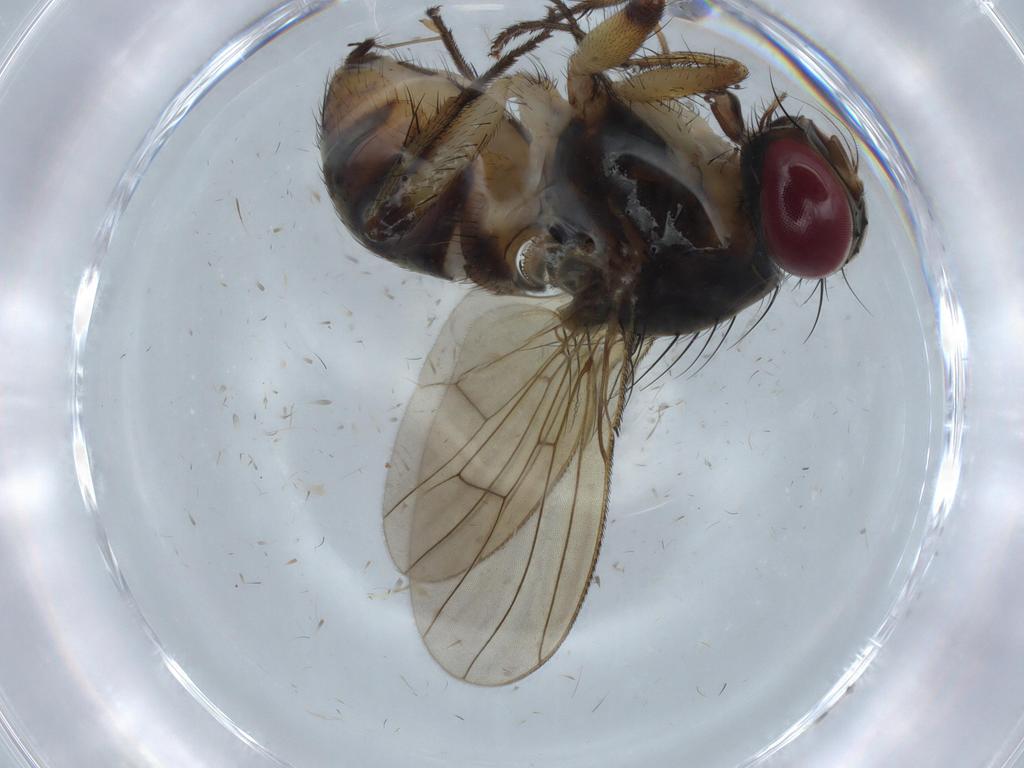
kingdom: Animalia
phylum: Arthropoda
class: Insecta
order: Diptera
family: Muscidae
